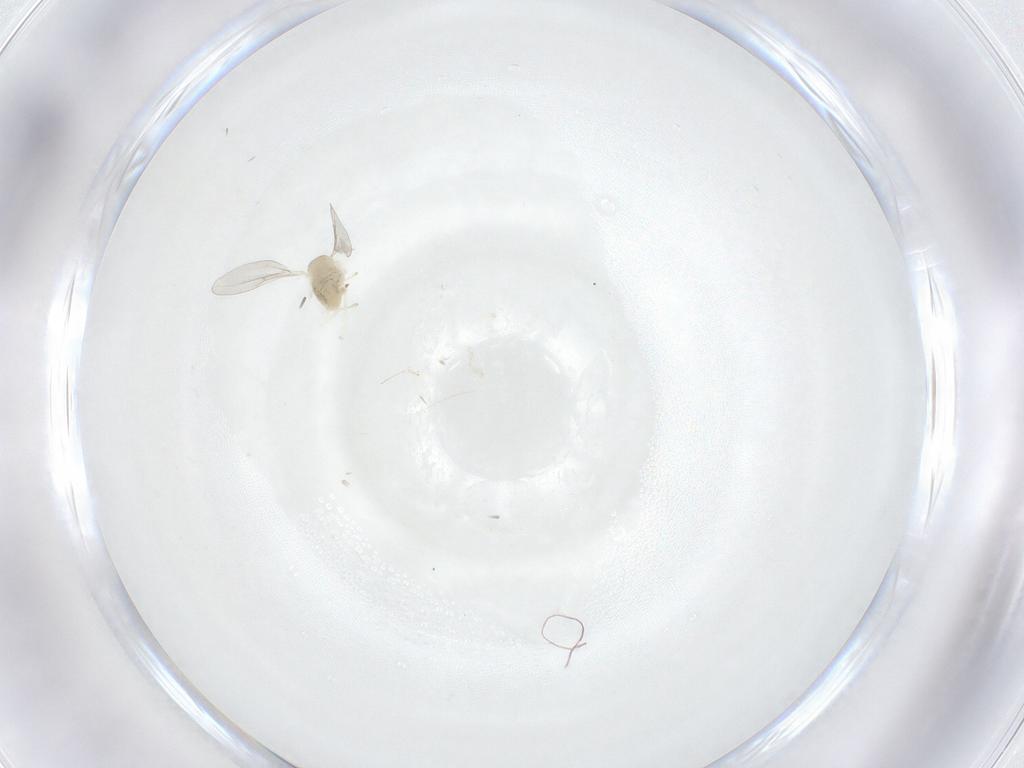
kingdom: Animalia
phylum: Arthropoda
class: Insecta
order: Diptera
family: Cecidomyiidae
